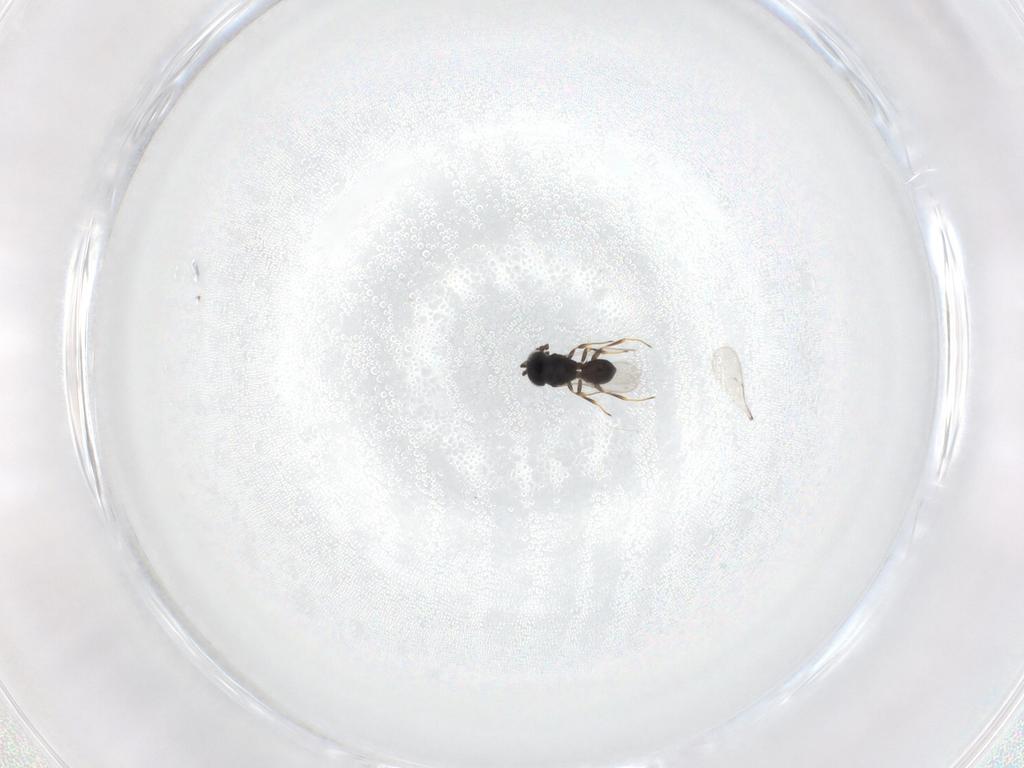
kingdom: Animalia
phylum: Arthropoda
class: Insecta
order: Hymenoptera
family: Scelionidae
